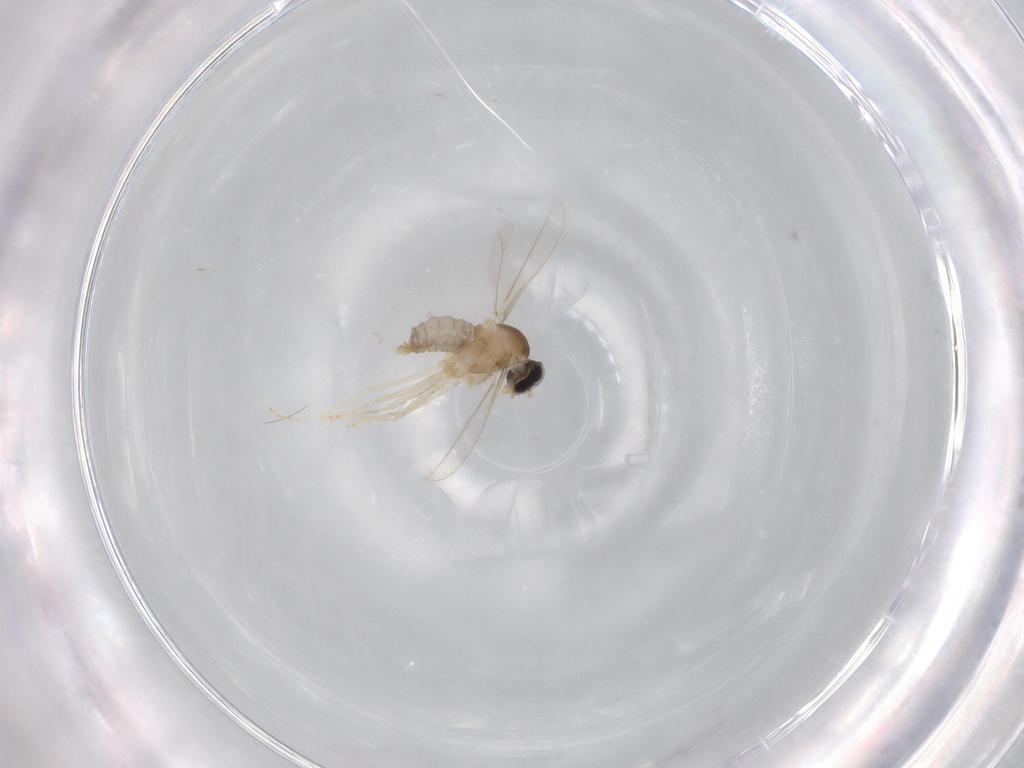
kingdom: Animalia
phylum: Arthropoda
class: Insecta
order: Diptera
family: Cecidomyiidae
